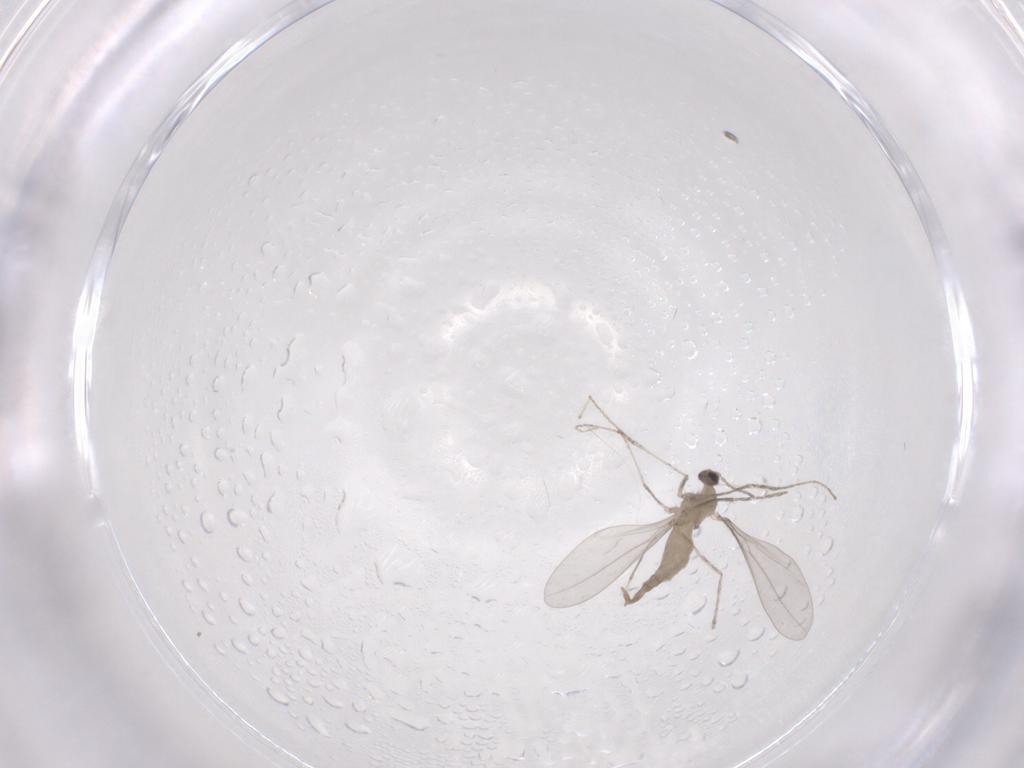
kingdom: Animalia
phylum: Arthropoda
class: Insecta
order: Diptera
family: Cecidomyiidae
